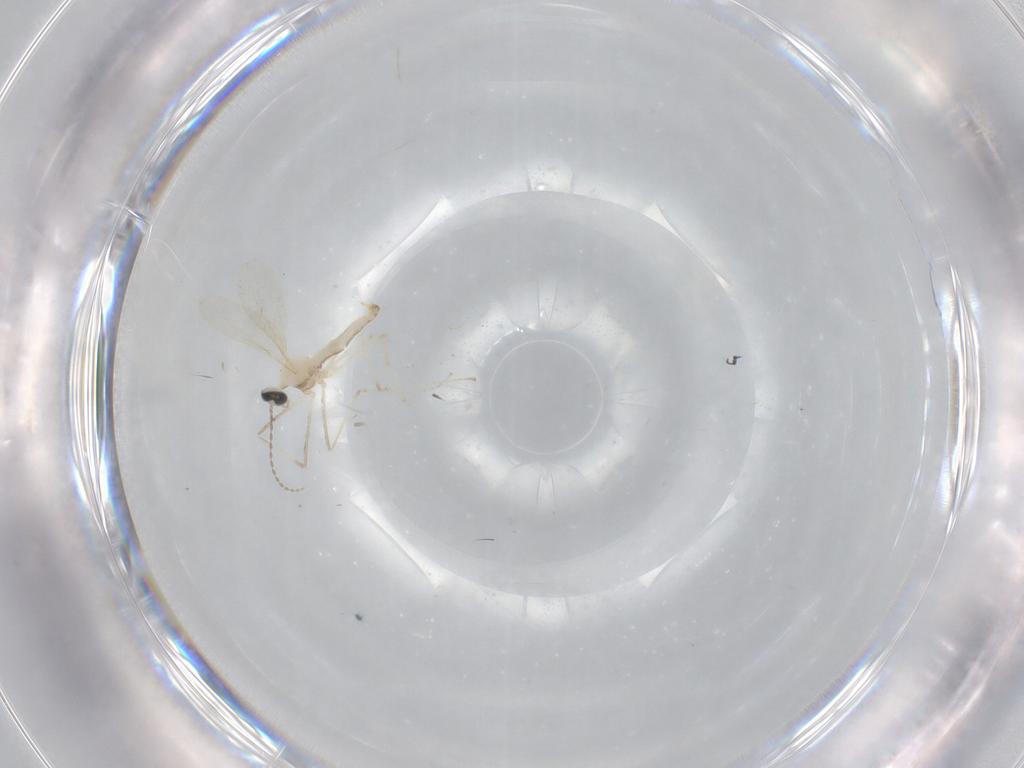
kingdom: Animalia
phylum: Arthropoda
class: Insecta
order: Diptera
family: Cecidomyiidae
